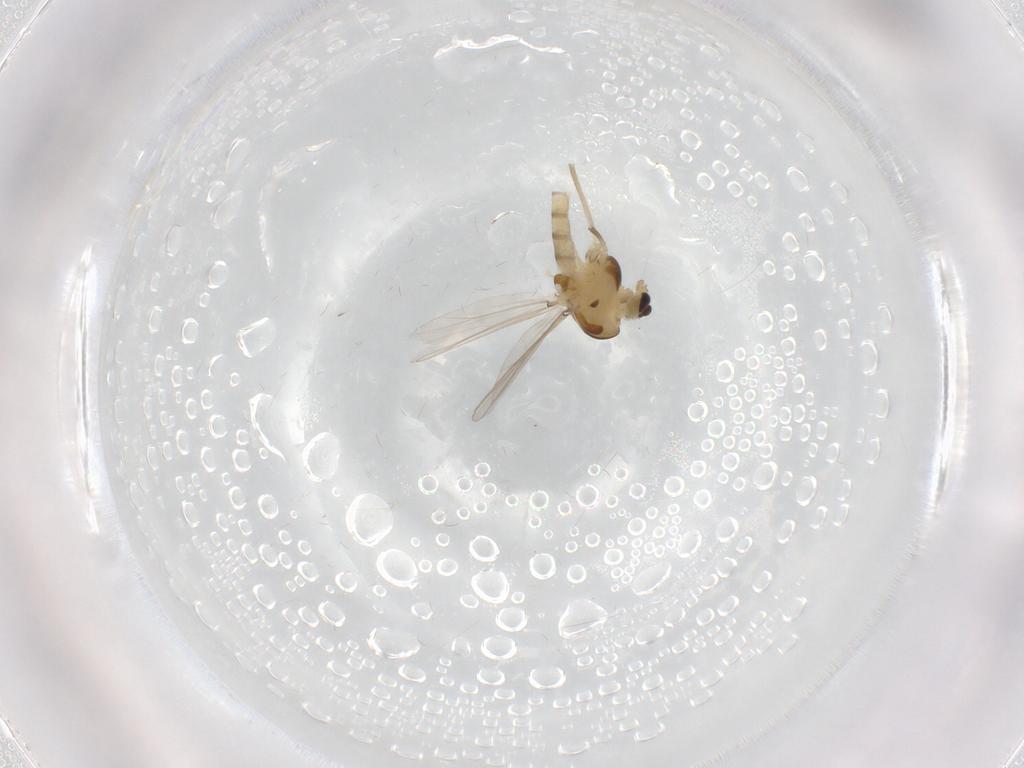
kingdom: Animalia
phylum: Arthropoda
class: Insecta
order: Diptera
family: Chironomidae
